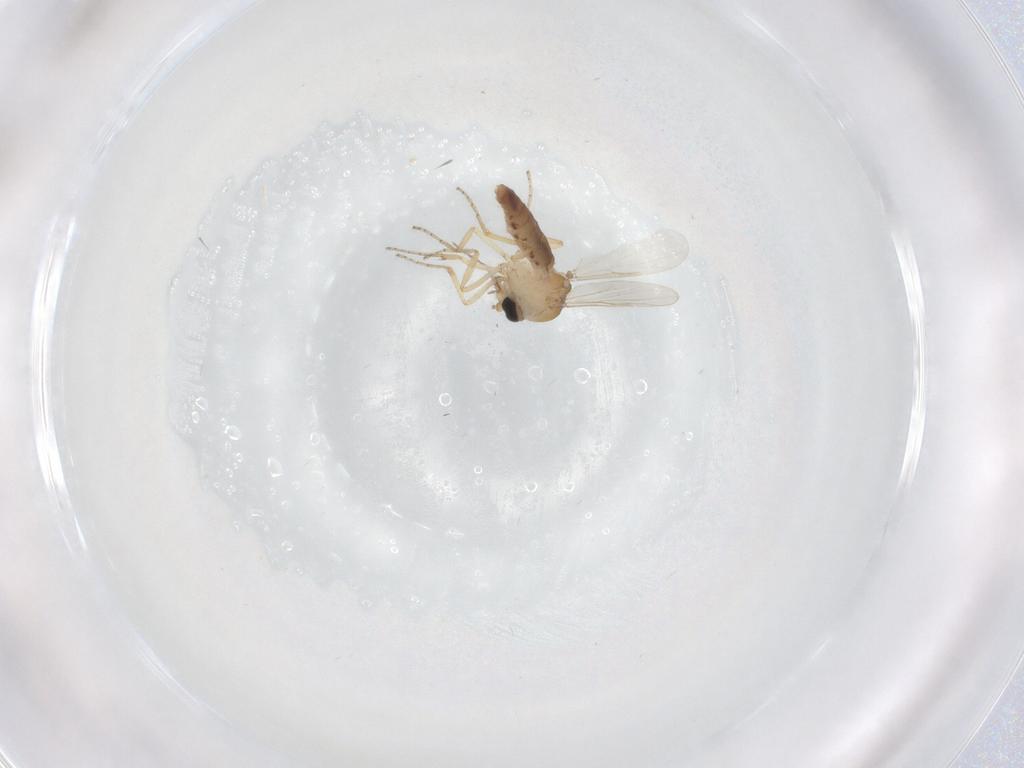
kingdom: Animalia
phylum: Arthropoda
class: Insecta
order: Diptera
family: Ceratopogonidae
